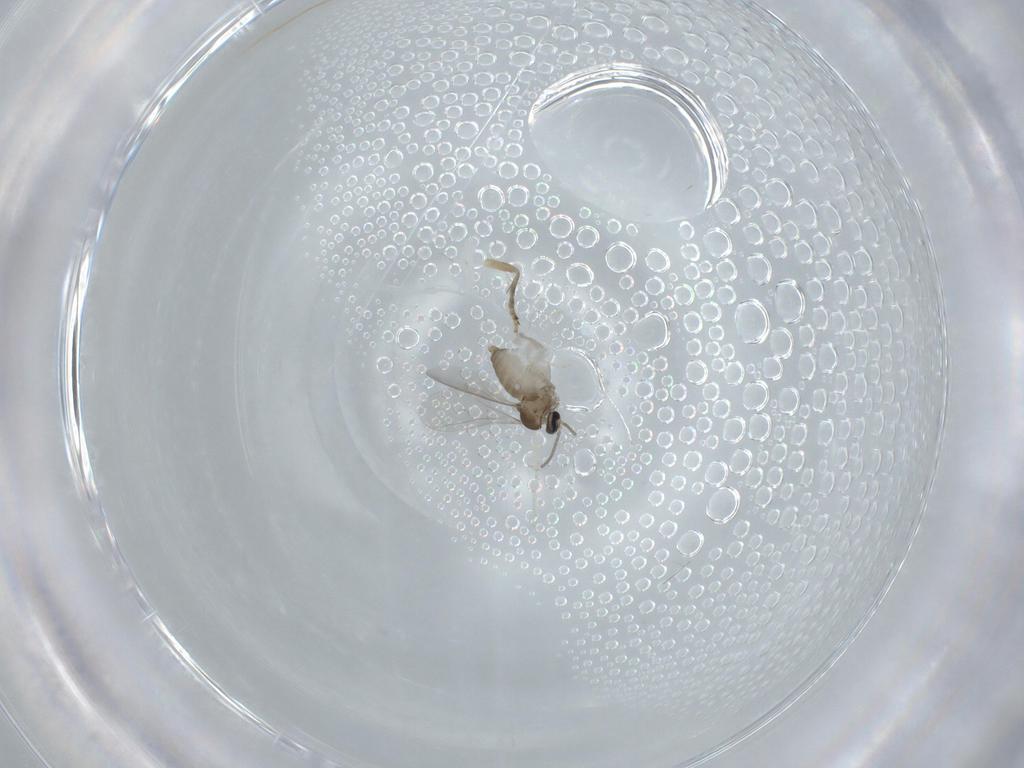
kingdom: Animalia
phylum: Arthropoda
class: Insecta
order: Diptera
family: Cecidomyiidae
